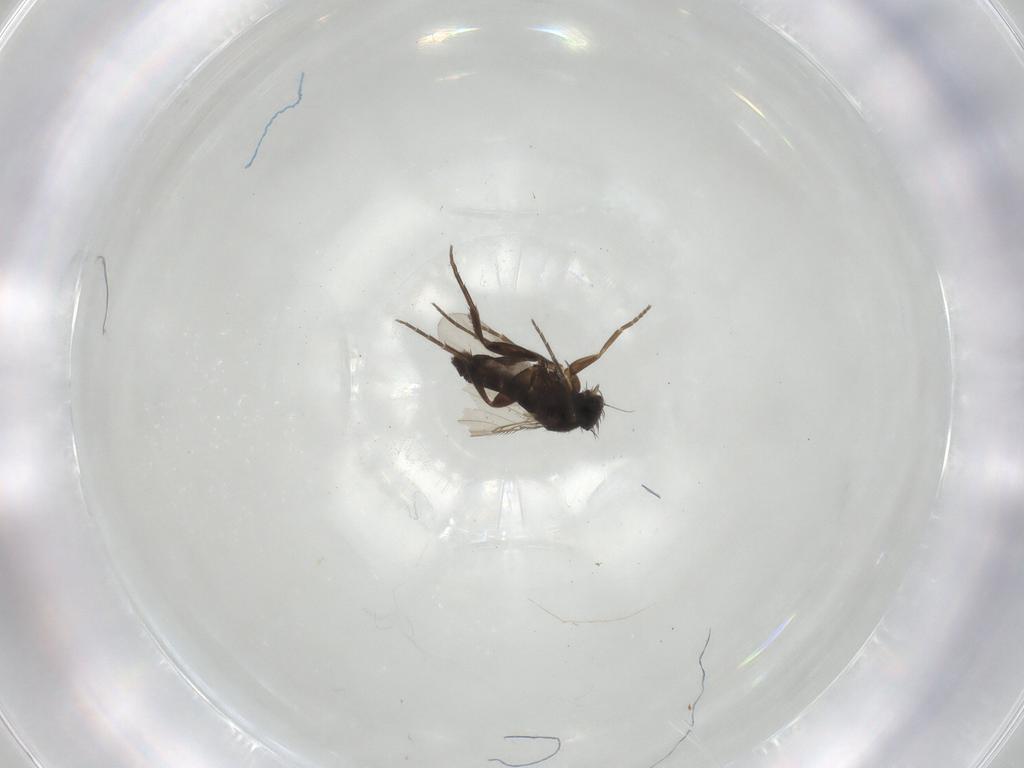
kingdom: Animalia
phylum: Arthropoda
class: Insecta
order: Diptera
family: Phoridae
